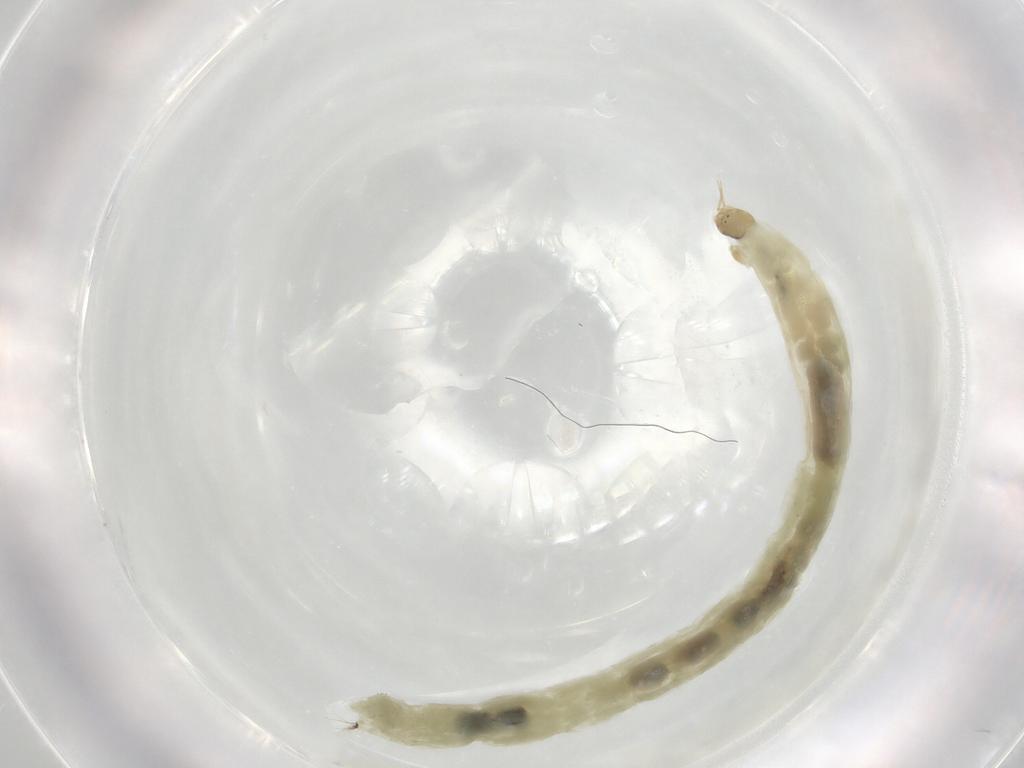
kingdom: Animalia
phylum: Arthropoda
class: Insecta
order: Diptera
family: Chironomidae
